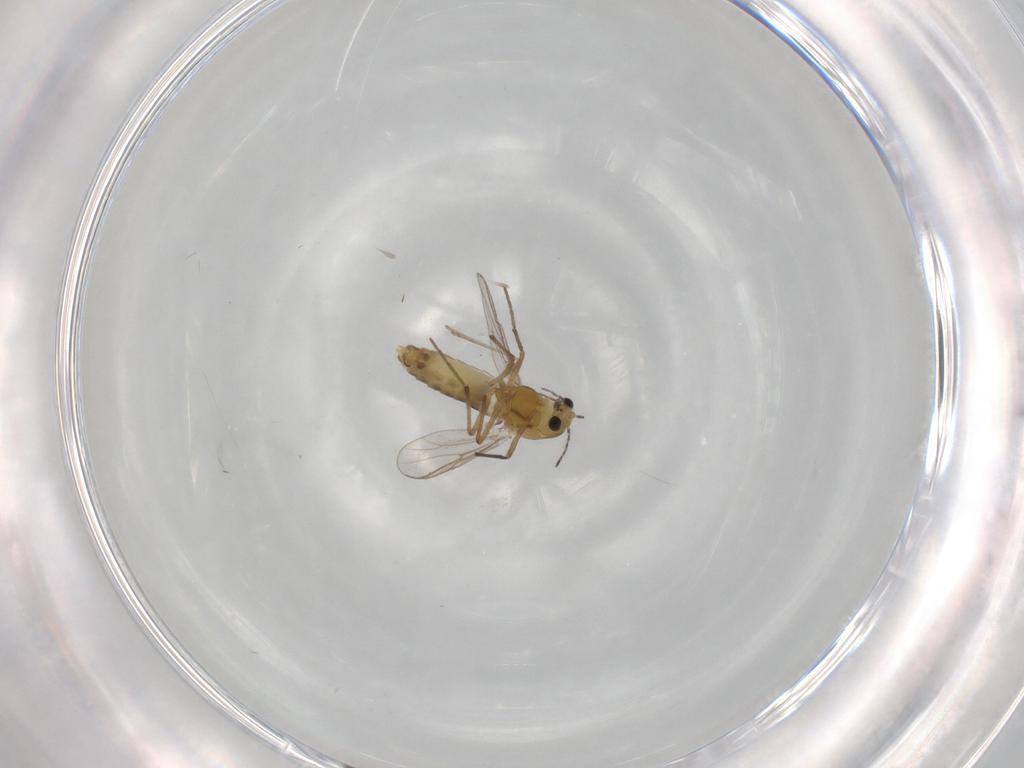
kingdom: Animalia
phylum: Arthropoda
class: Insecta
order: Diptera
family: Chironomidae
